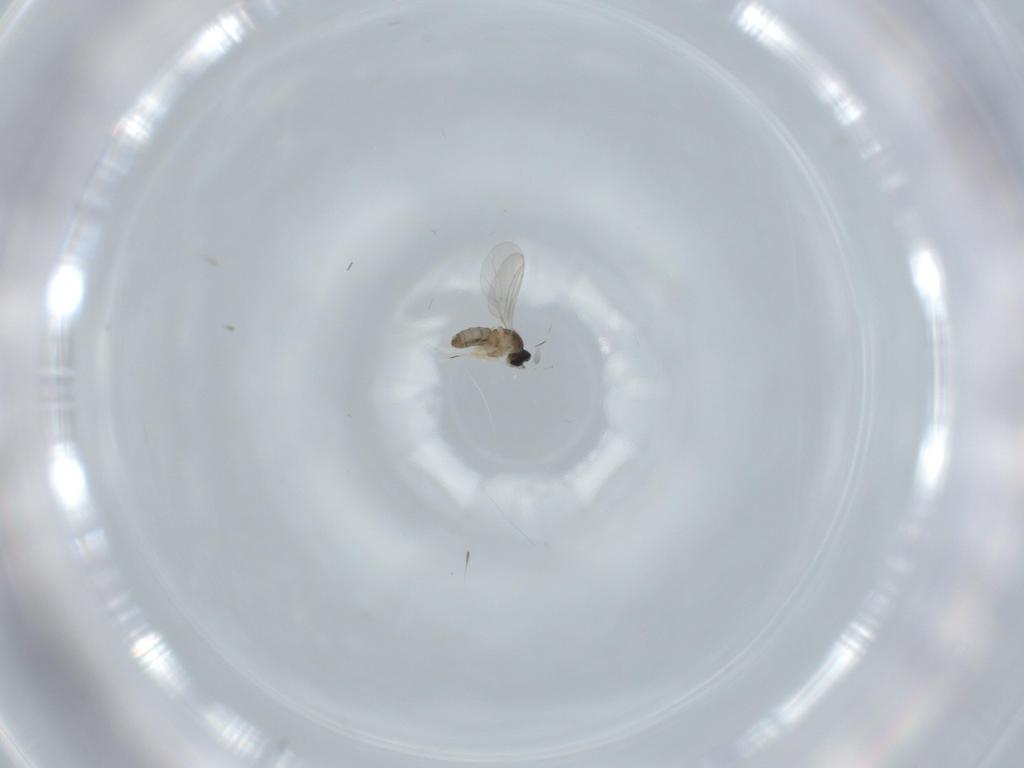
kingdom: Animalia
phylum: Arthropoda
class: Insecta
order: Diptera
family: Cecidomyiidae
